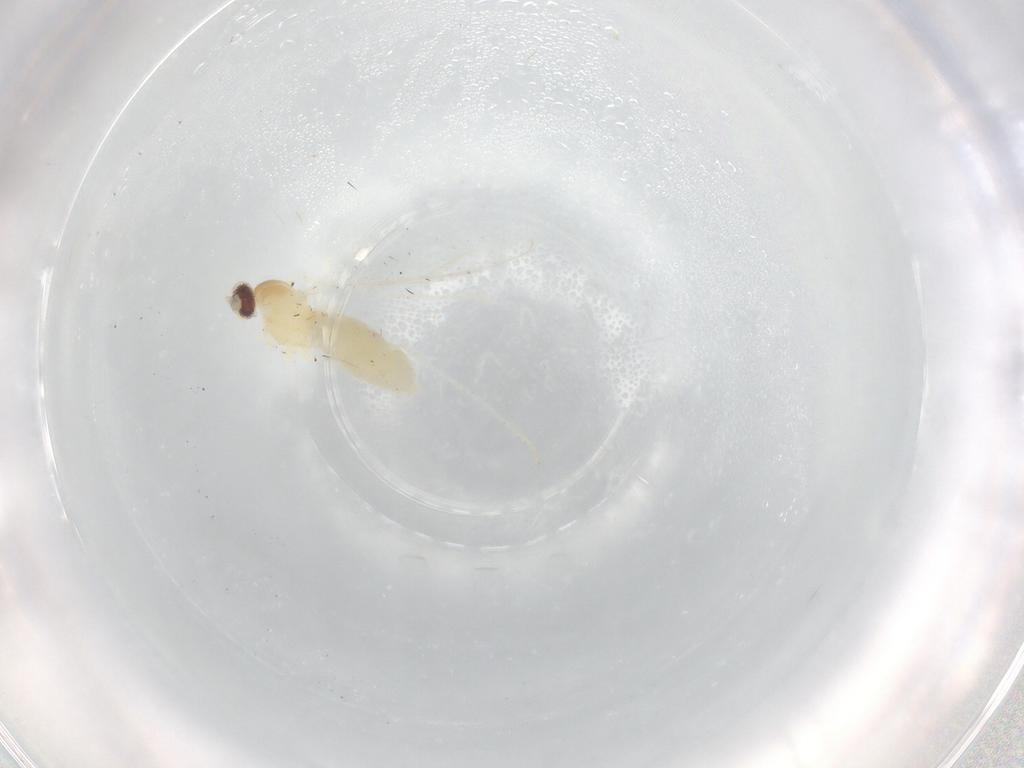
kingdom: Animalia
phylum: Arthropoda
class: Insecta
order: Diptera
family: Cecidomyiidae
